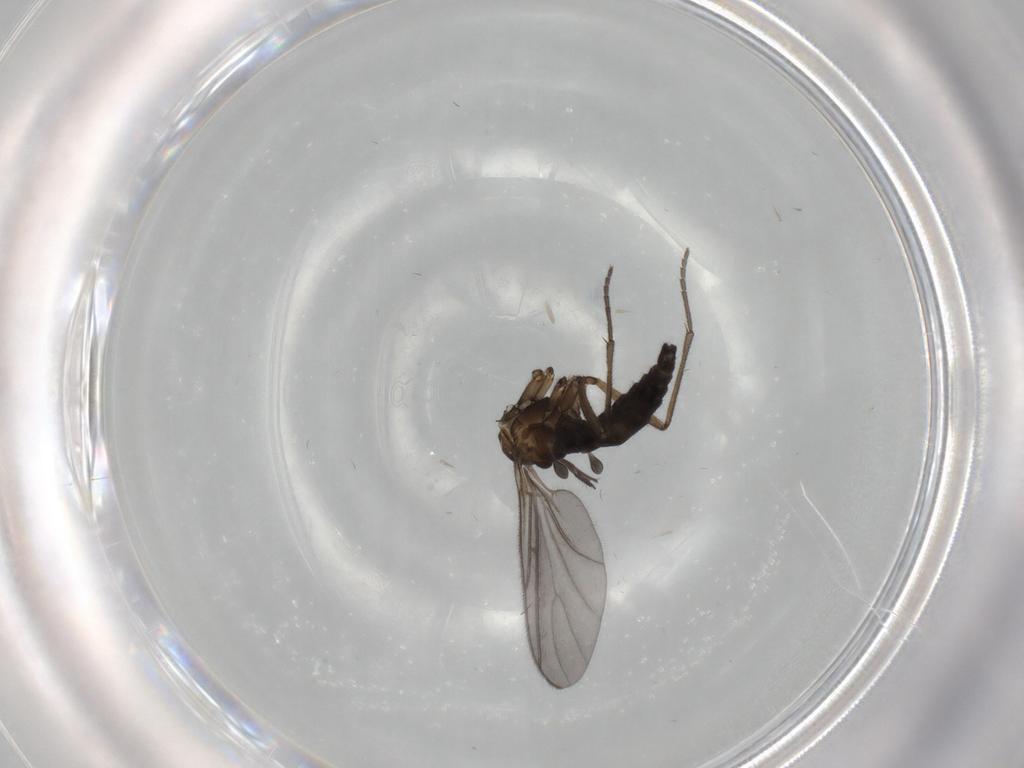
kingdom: Animalia
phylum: Arthropoda
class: Insecta
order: Diptera
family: Sciaridae
